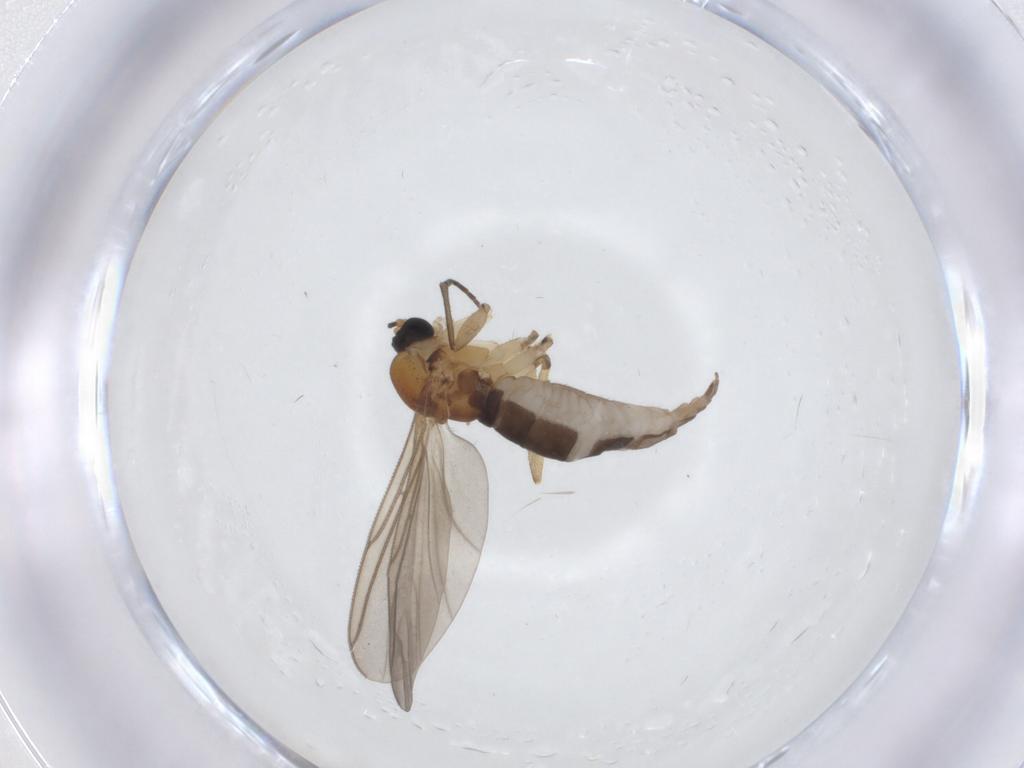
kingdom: Animalia
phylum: Arthropoda
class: Insecta
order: Diptera
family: Sciaridae
